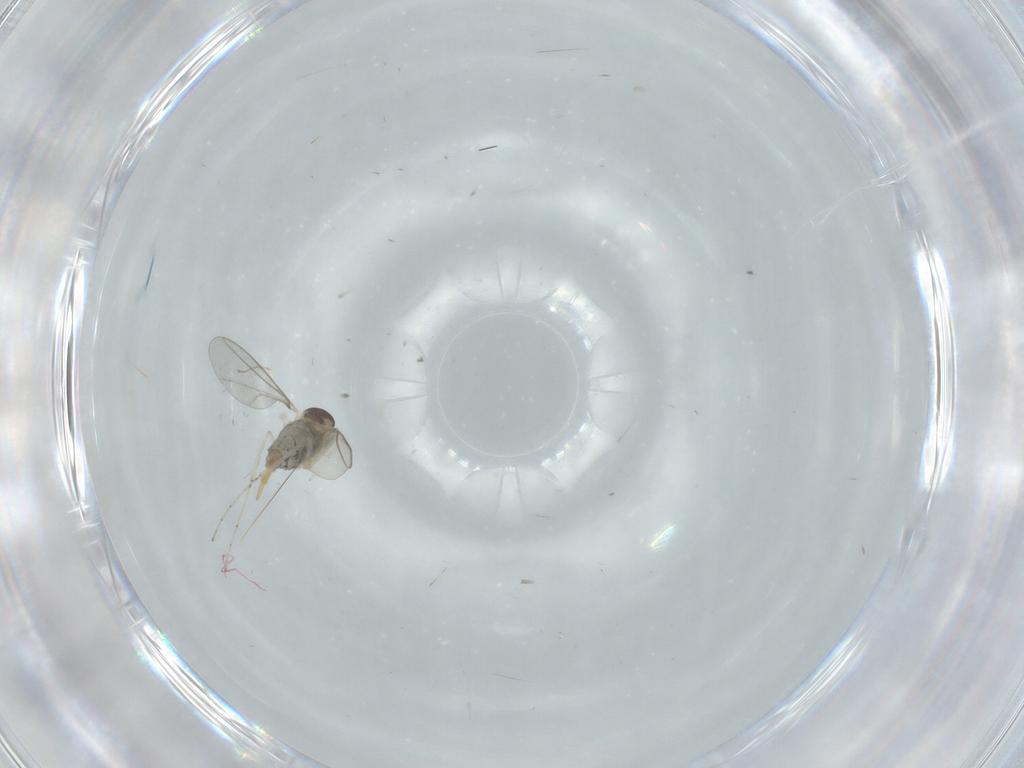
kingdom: Animalia
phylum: Arthropoda
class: Insecta
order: Diptera
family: Cecidomyiidae
